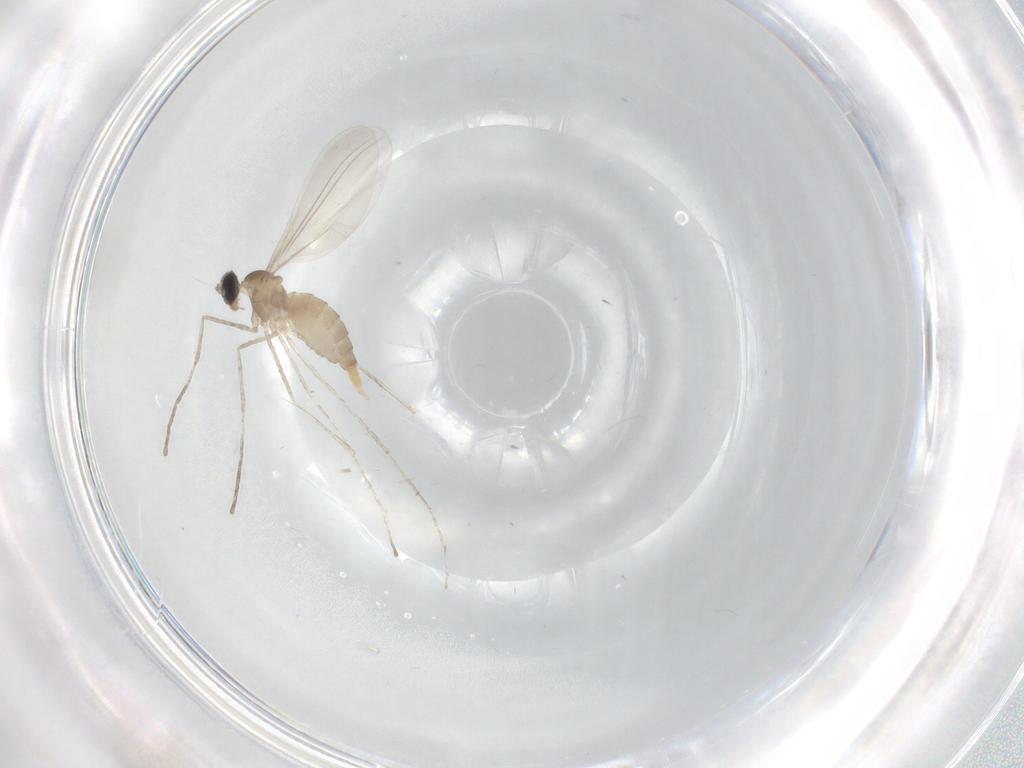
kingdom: Animalia
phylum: Arthropoda
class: Insecta
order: Diptera
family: Cecidomyiidae
